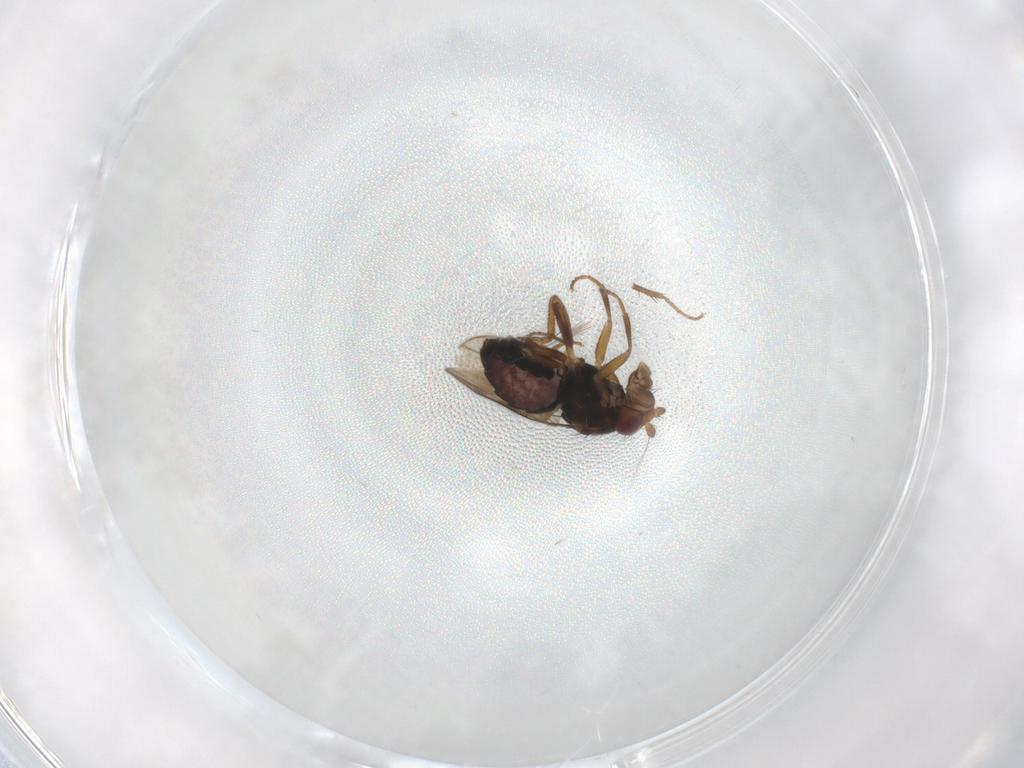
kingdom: Animalia
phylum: Arthropoda
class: Insecta
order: Diptera
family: Sphaeroceridae
